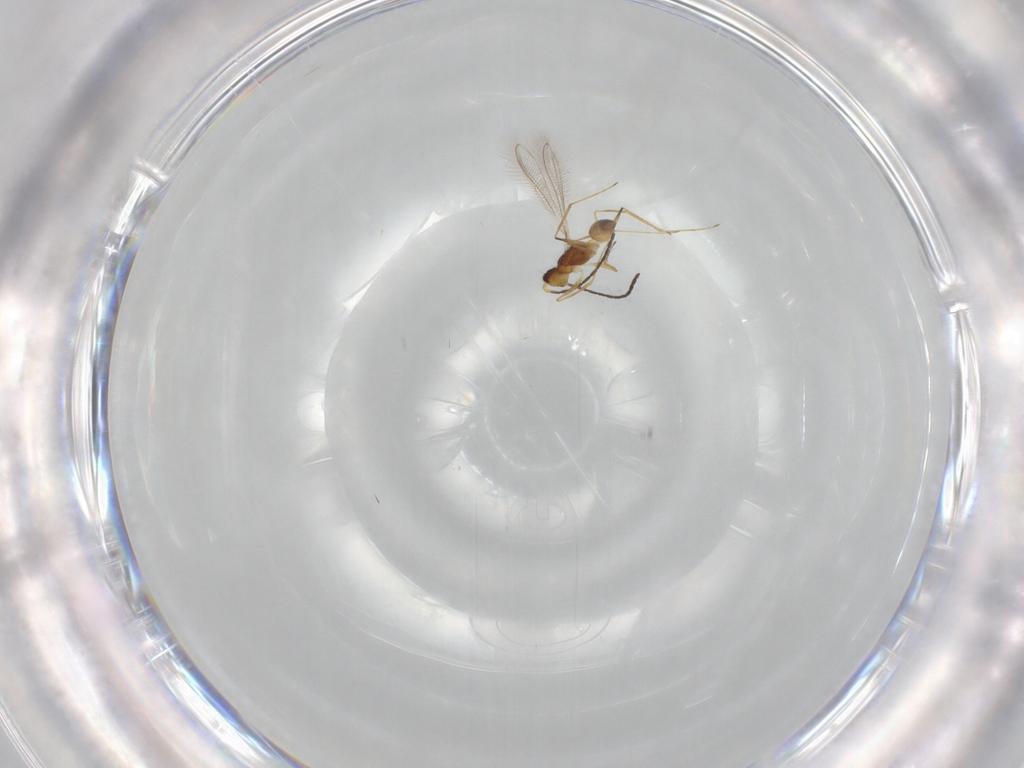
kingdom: Animalia
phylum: Arthropoda
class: Insecta
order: Hymenoptera
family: Mymaridae
